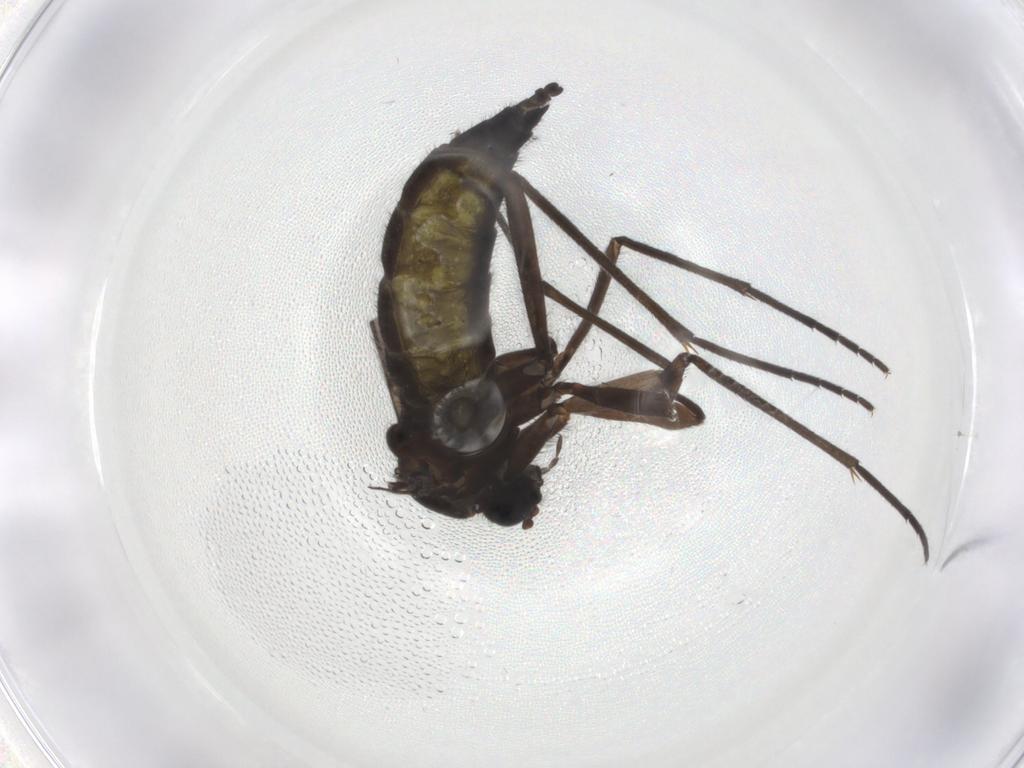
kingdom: Animalia
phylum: Arthropoda
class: Insecta
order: Diptera
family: Sciaridae
